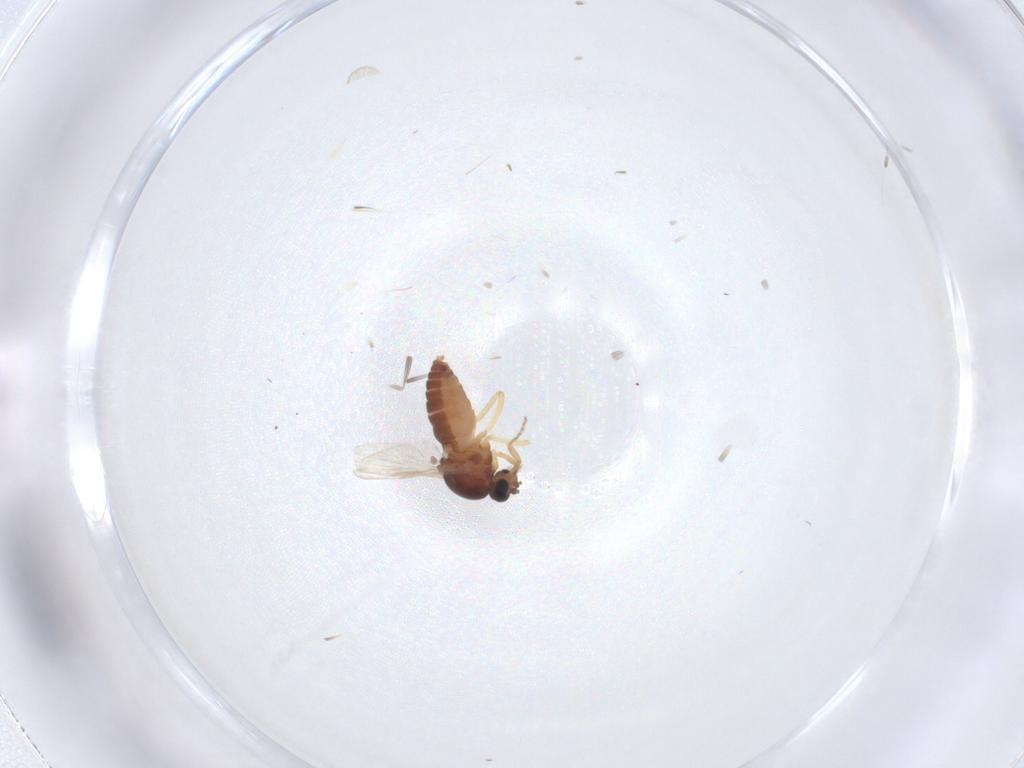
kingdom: Animalia
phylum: Arthropoda
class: Insecta
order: Diptera
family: Ceratopogonidae
